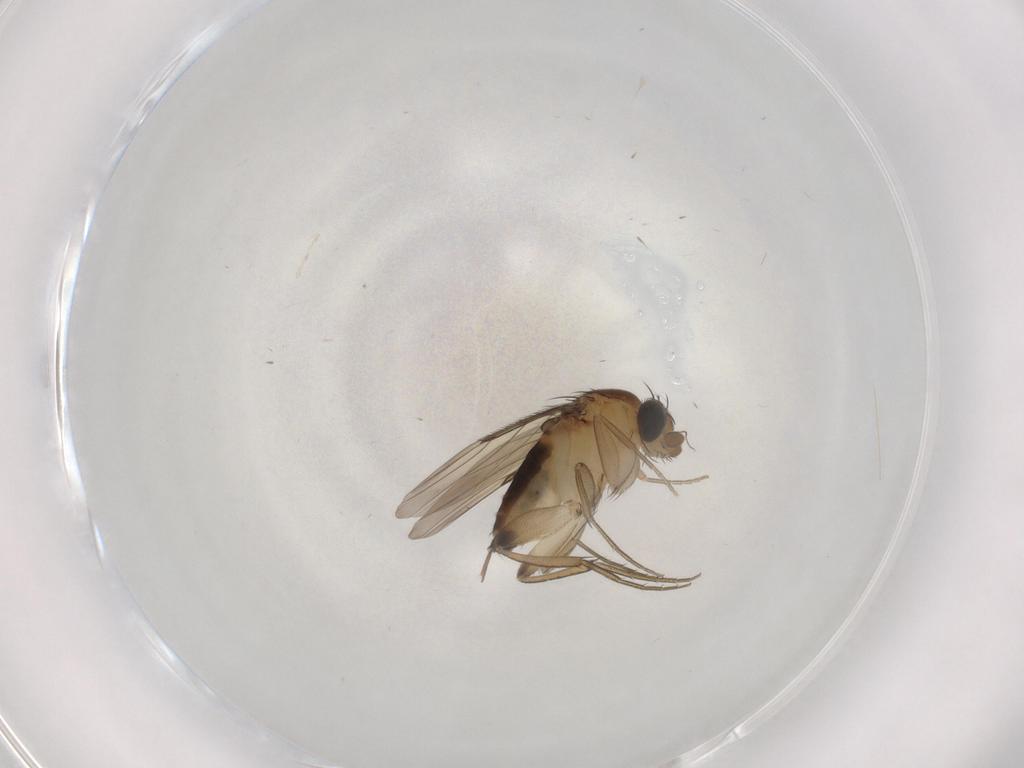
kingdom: Animalia
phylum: Arthropoda
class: Insecta
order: Diptera
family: Phoridae
